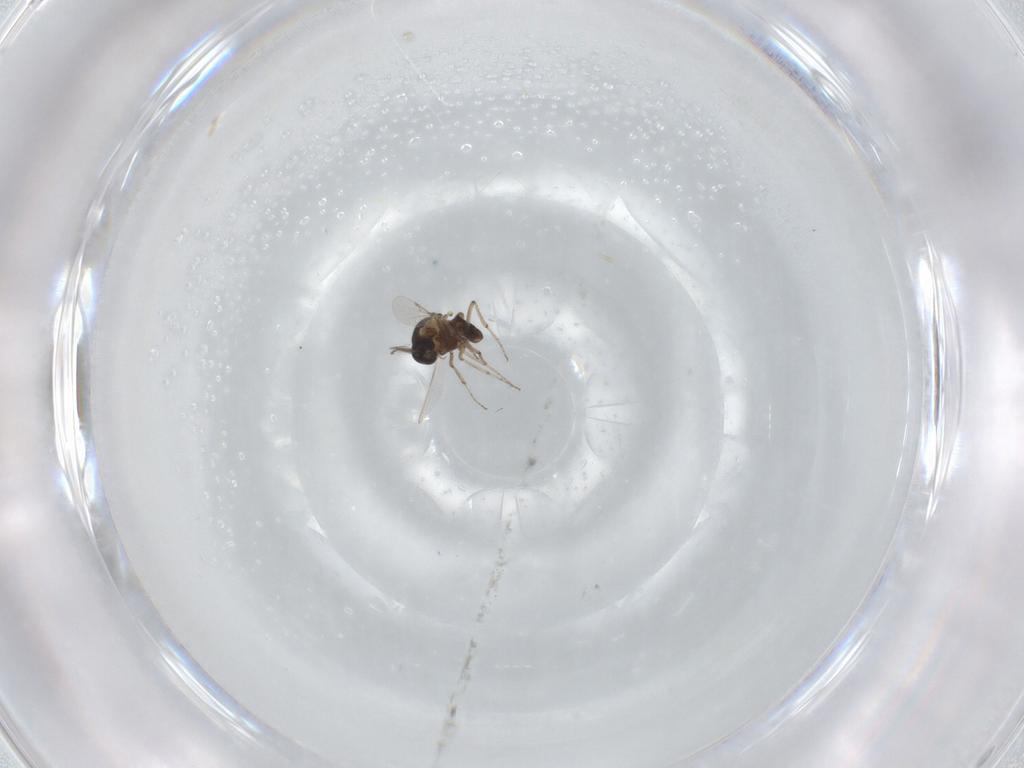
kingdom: Animalia
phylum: Arthropoda
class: Insecta
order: Diptera
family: Ceratopogonidae
